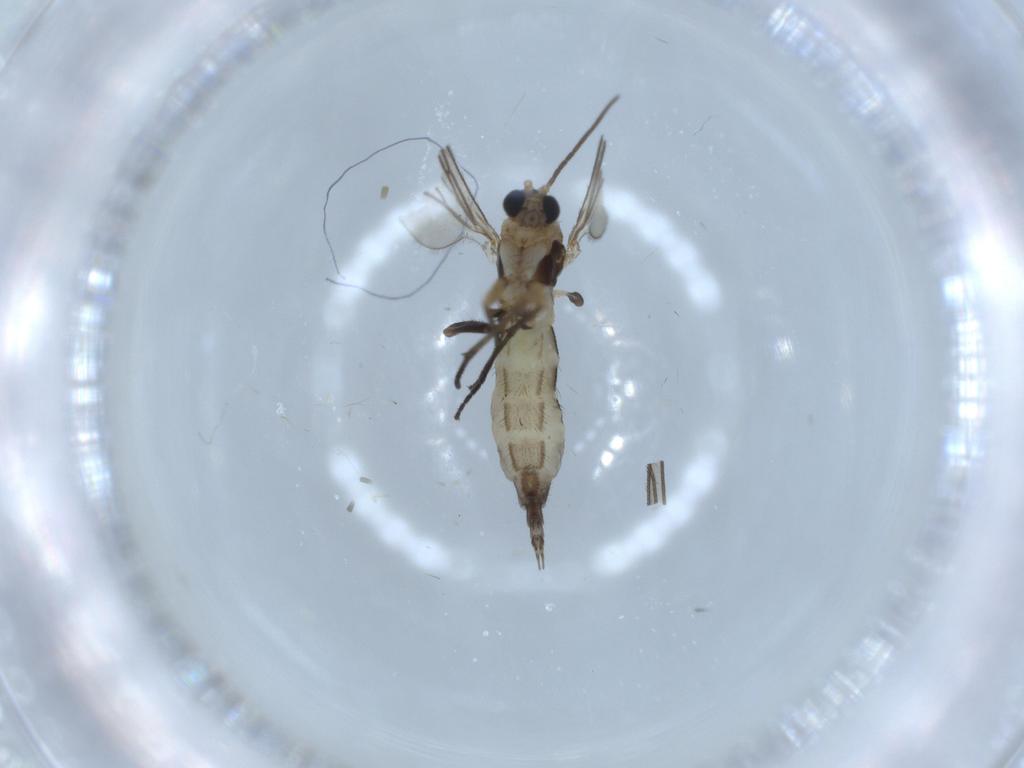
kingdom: Animalia
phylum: Arthropoda
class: Insecta
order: Diptera
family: Sciaridae
